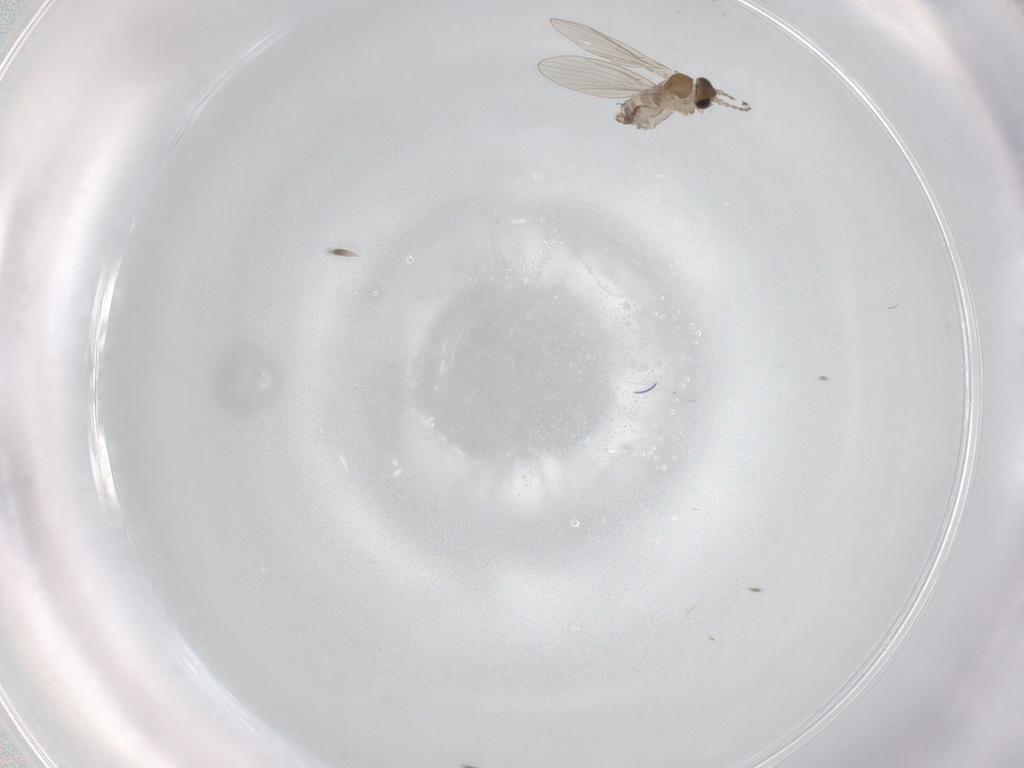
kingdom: Animalia
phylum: Arthropoda
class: Insecta
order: Diptera
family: Psychodidae
